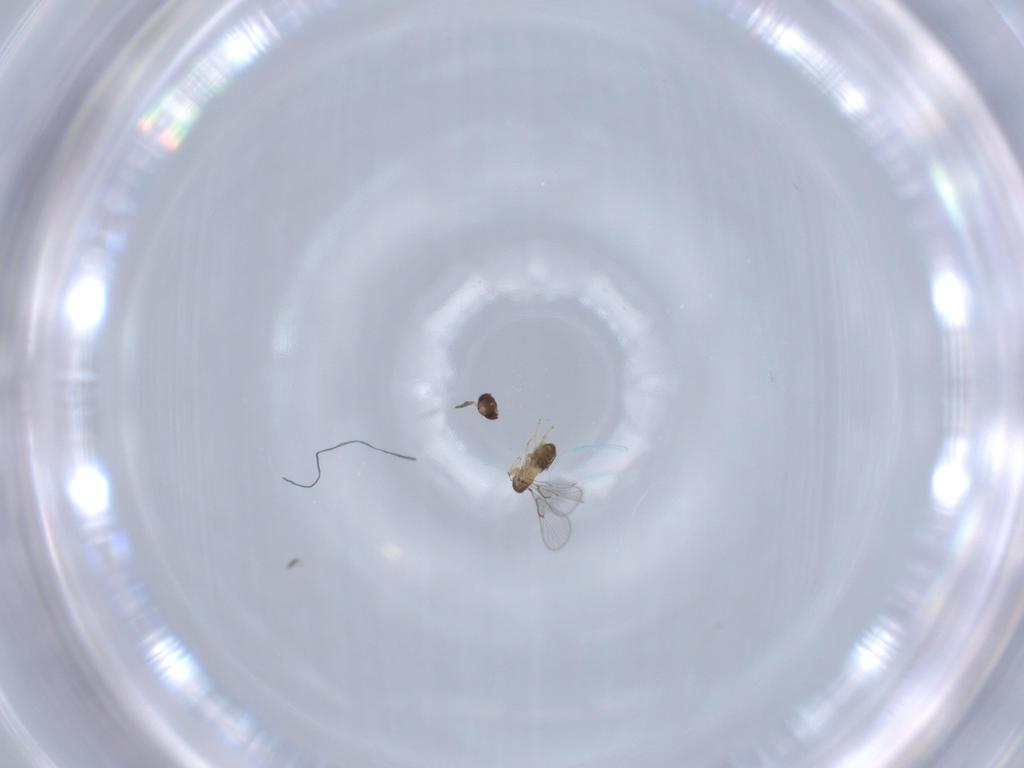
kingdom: Animalia
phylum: Arthropoda
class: Insecta
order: Hymenoptera
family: Trichogrammatidae
